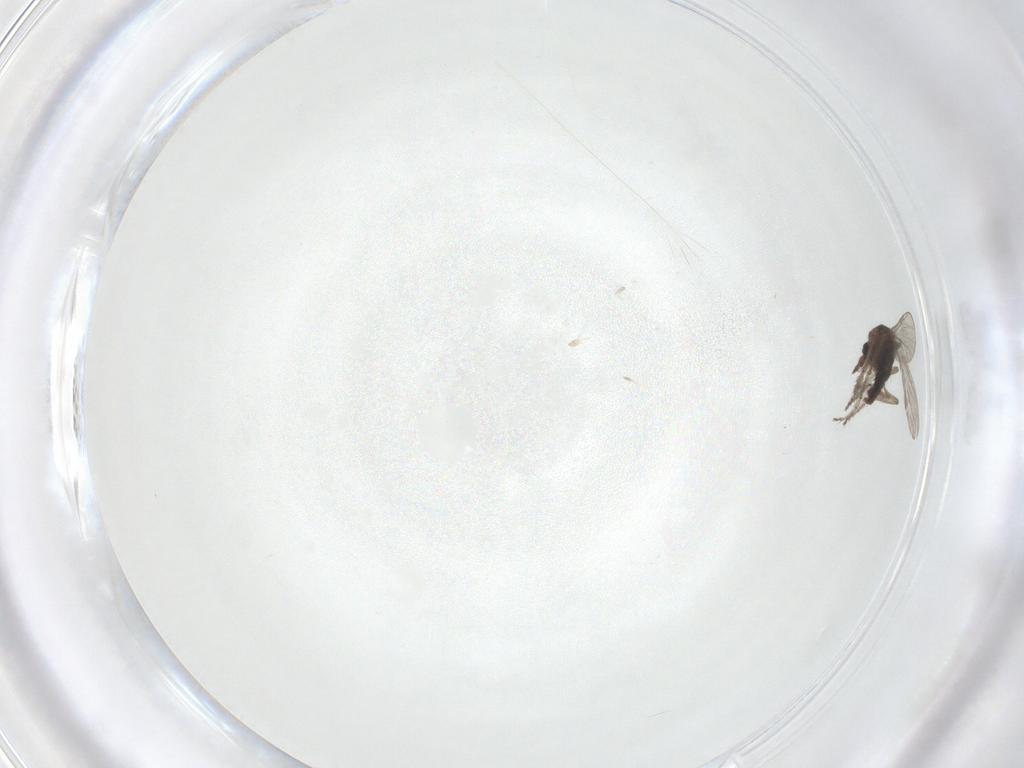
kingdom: Animalia
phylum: Arthropoda
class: Insecta
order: Diptera
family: Ceratopogonidae
